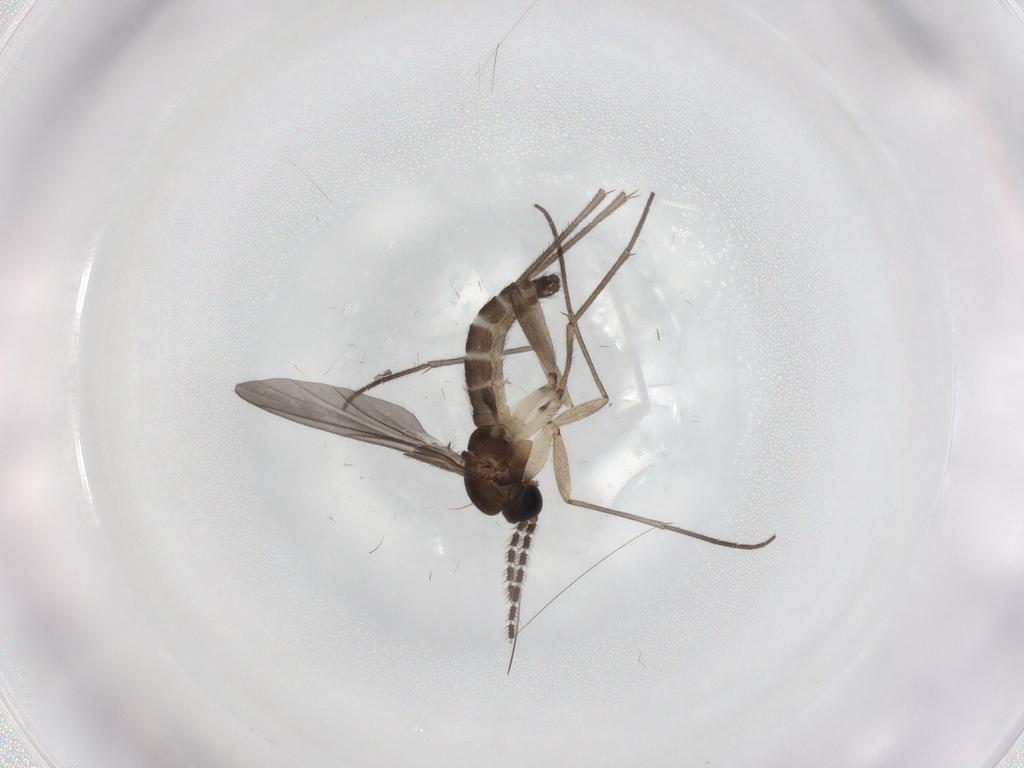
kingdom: Animalia
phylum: Arthropoda
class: Insecta
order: Diptera
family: Sciaridae
